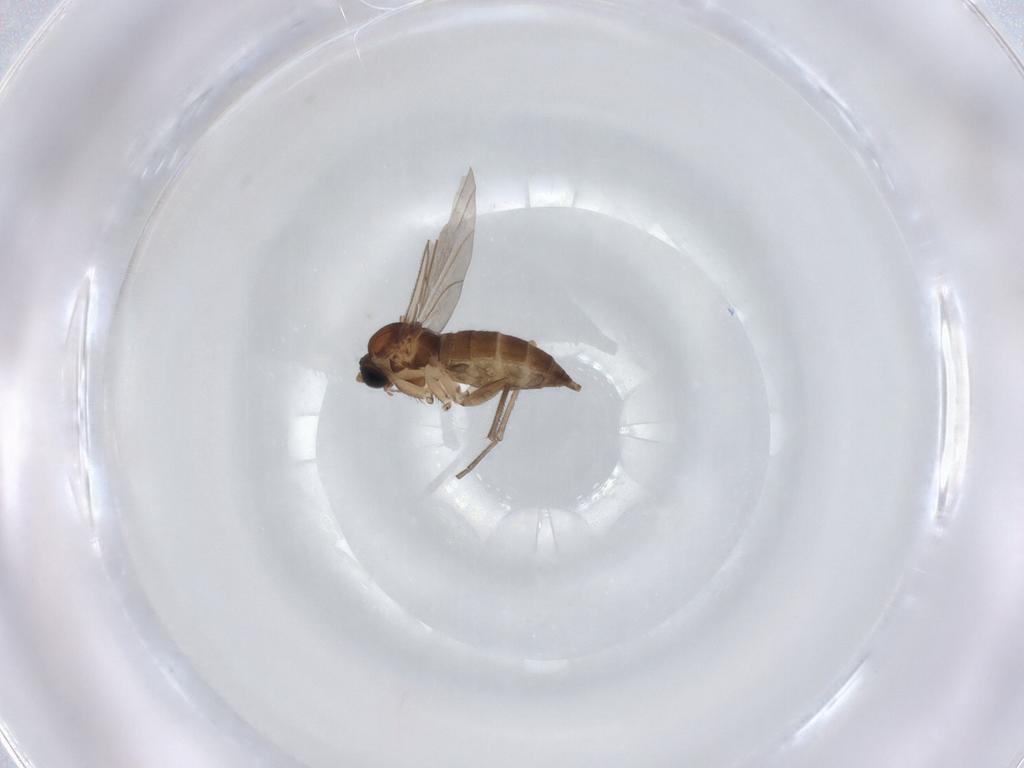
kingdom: Animalia
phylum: Arthropoda
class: Insecta
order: Diptera
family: Sciaridae
